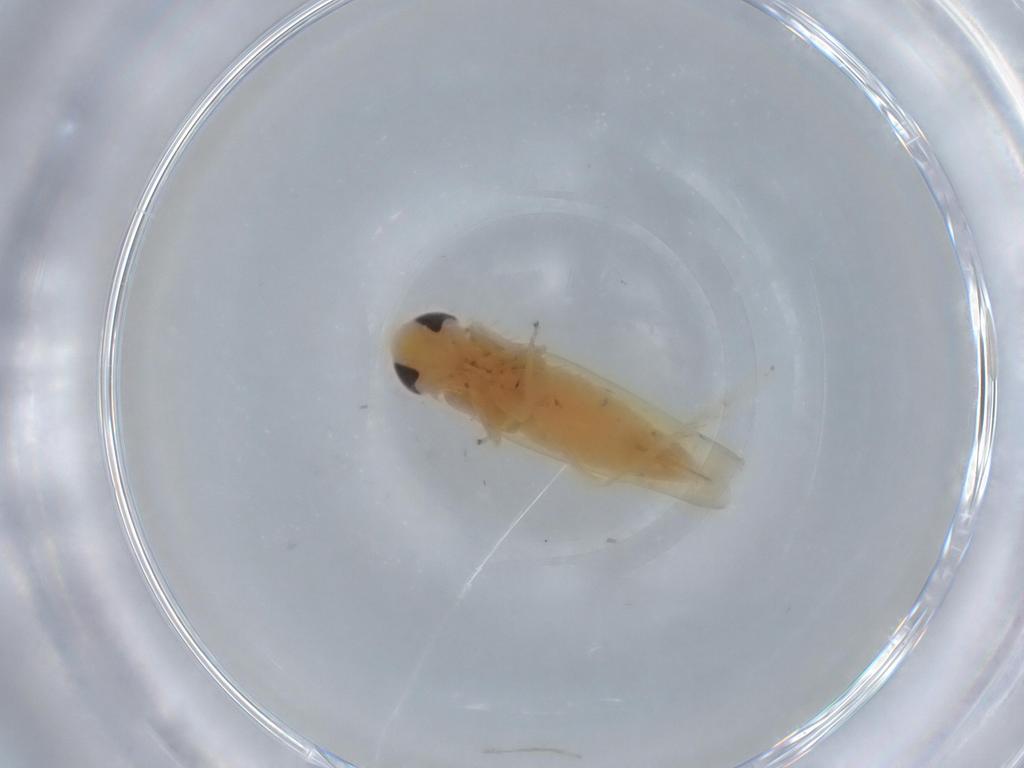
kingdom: Animalia
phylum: Arthropoda
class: Insecta
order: Hemiptera
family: Cicadellidae
